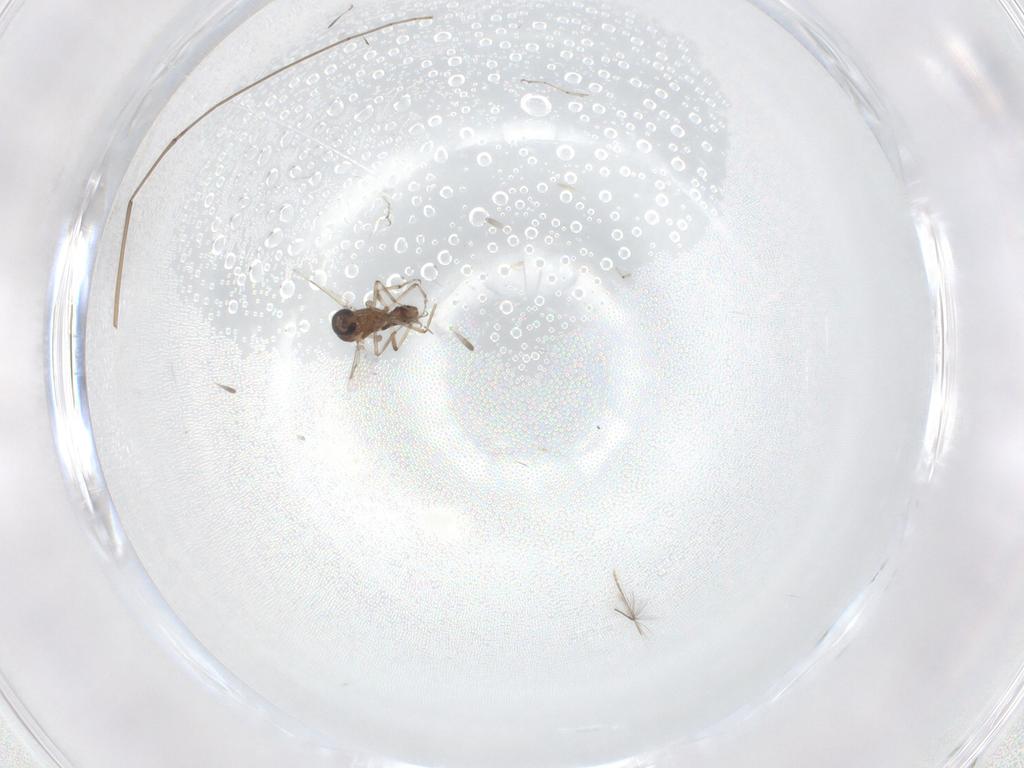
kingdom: Animalia
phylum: Arthropoda
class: Insecta
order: Diptera
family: Cecidomyiidae
